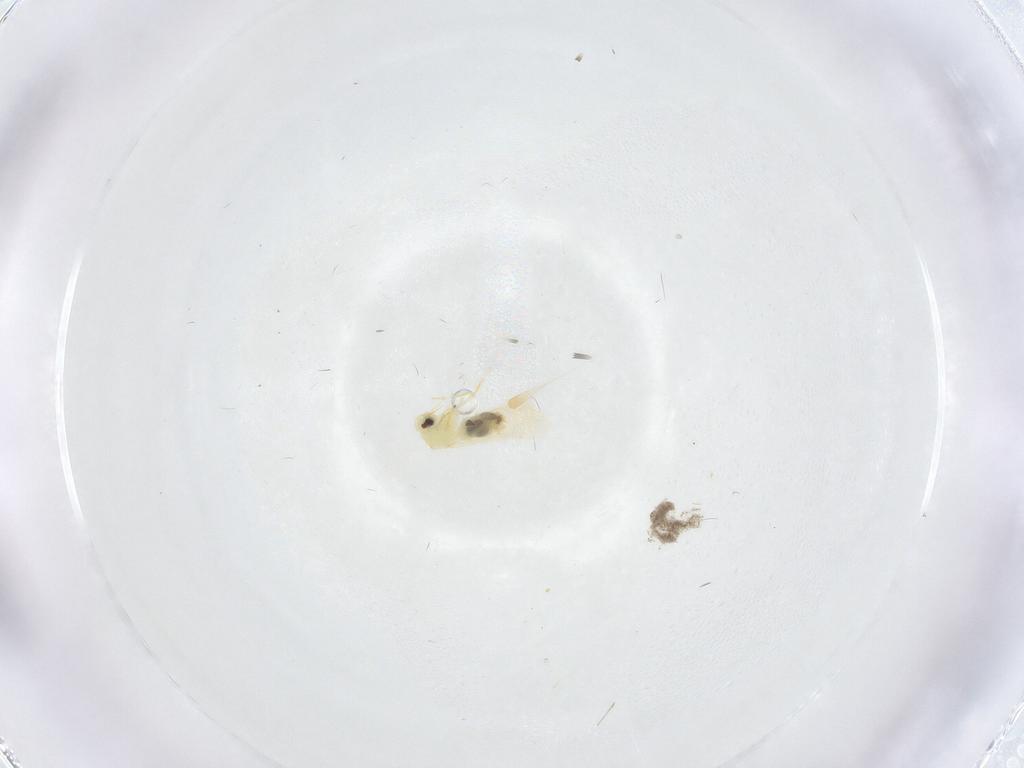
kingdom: Animalia
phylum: Arthropoda
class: Insecta
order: Hemiptera
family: Aleyrodidae
